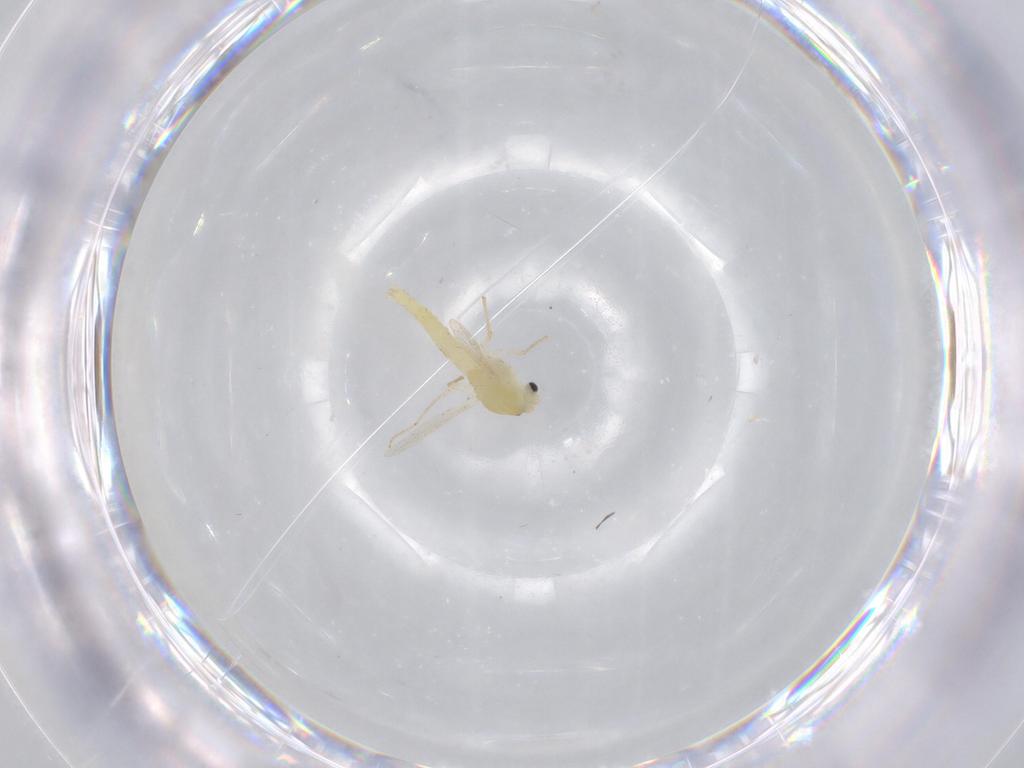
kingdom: Animalia
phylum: Arthropoda
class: Insecta
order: Diptera
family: Chironomidae
